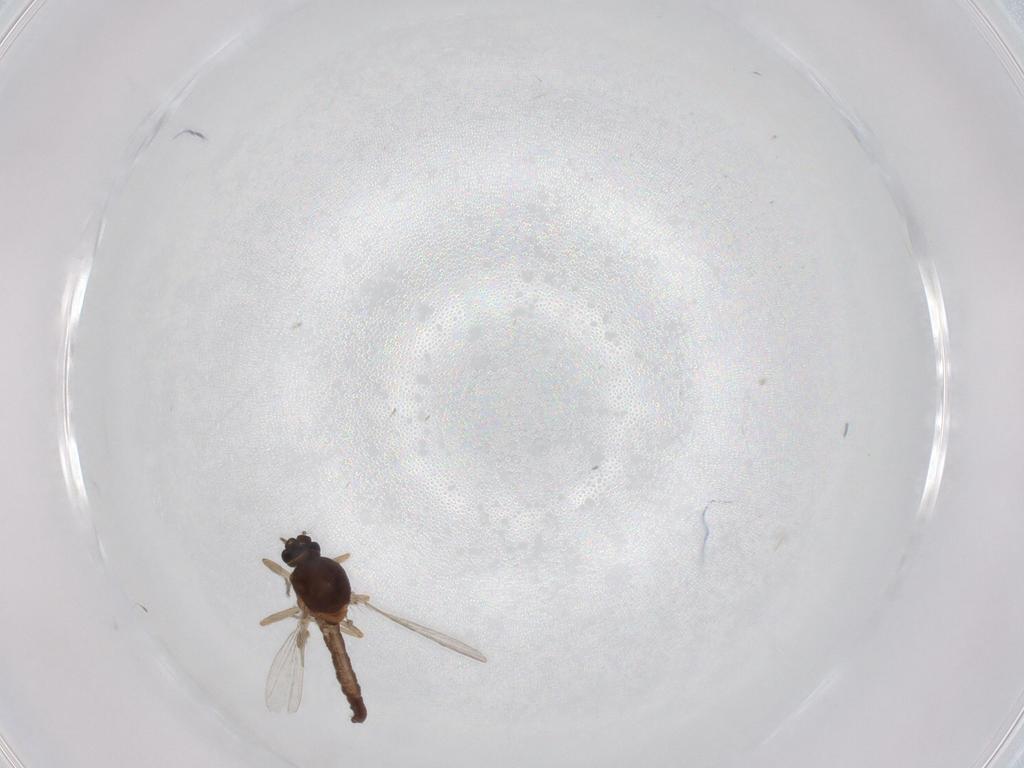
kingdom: Animalia
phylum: Arthropoda
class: Insecta
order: Diptera
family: Ceratopogonidae
